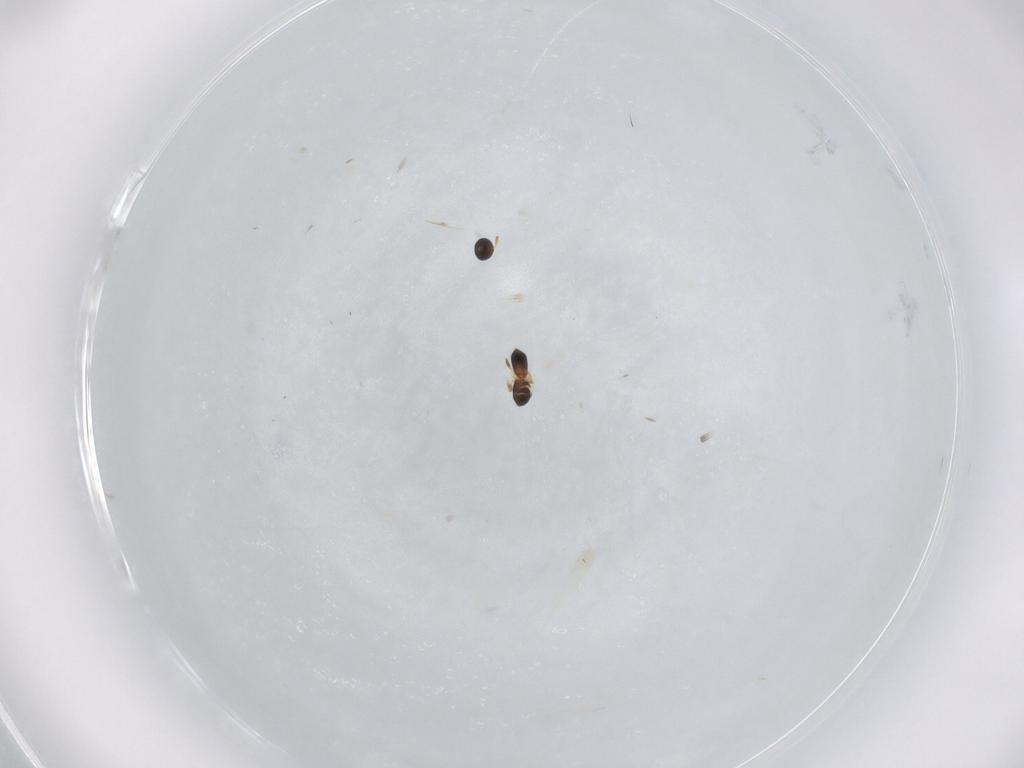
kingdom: Animalia
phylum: Arthropoda
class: Insecta
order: Hymenoptera
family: Platygastridae
